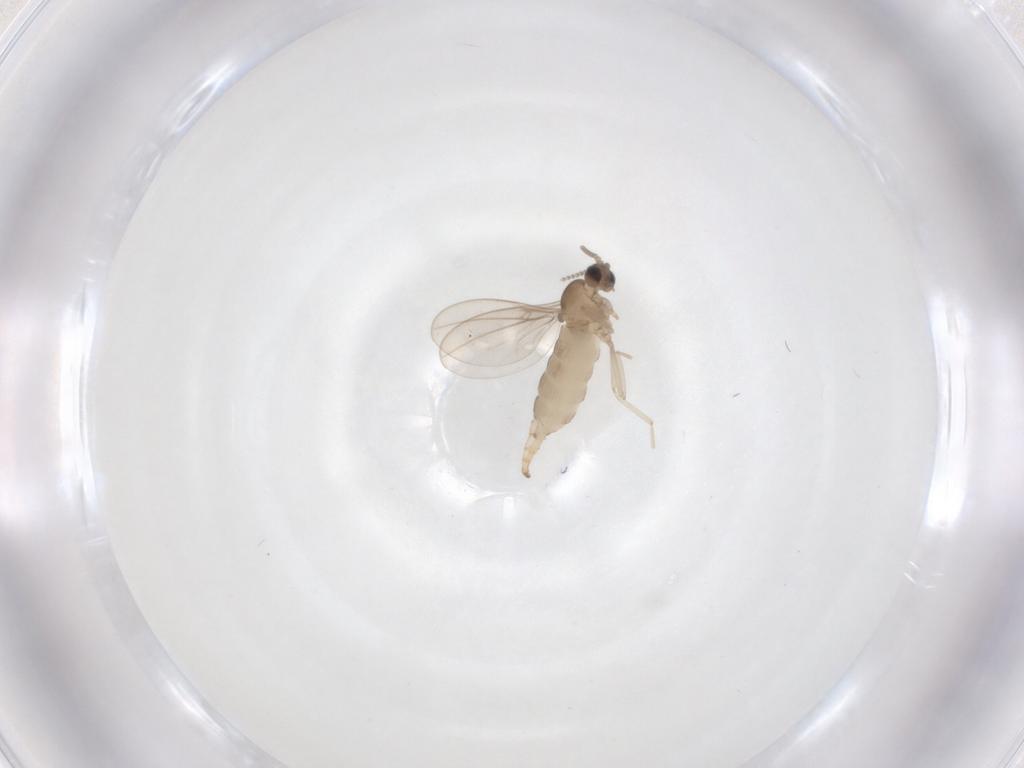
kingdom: Animalia
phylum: Arthropoda
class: Insecta
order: Diptera
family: Cecidomyiidae
